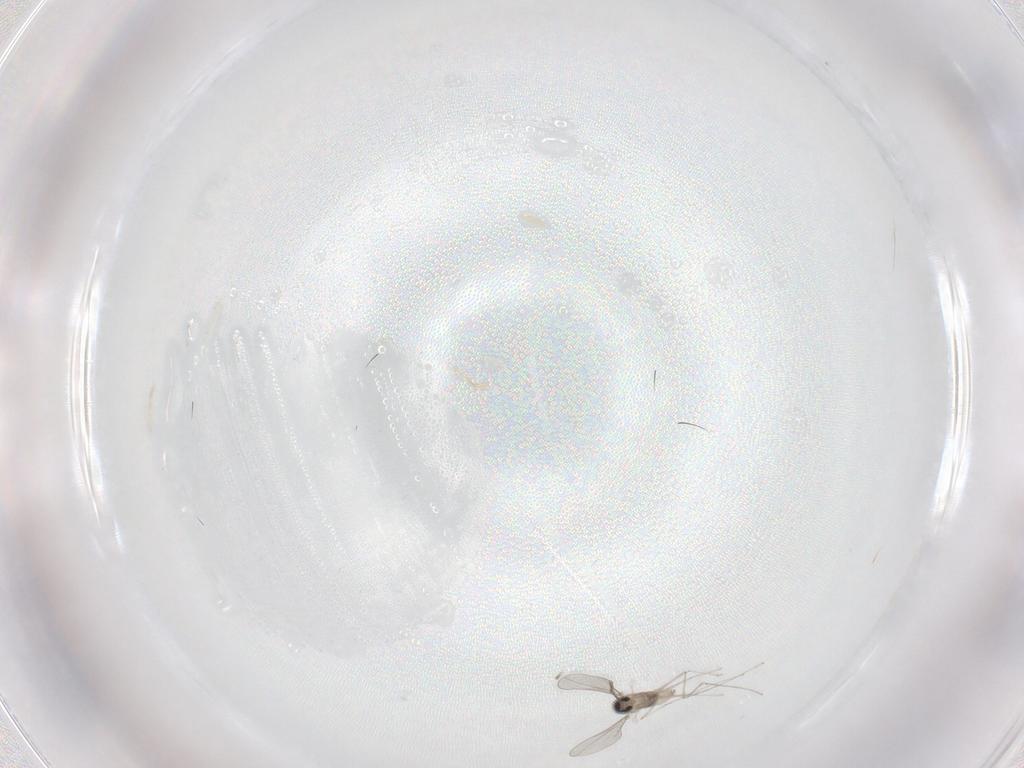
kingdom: Animalia
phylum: Arthropoda
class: Insecta
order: Diptera
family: Cecidomyiidae
